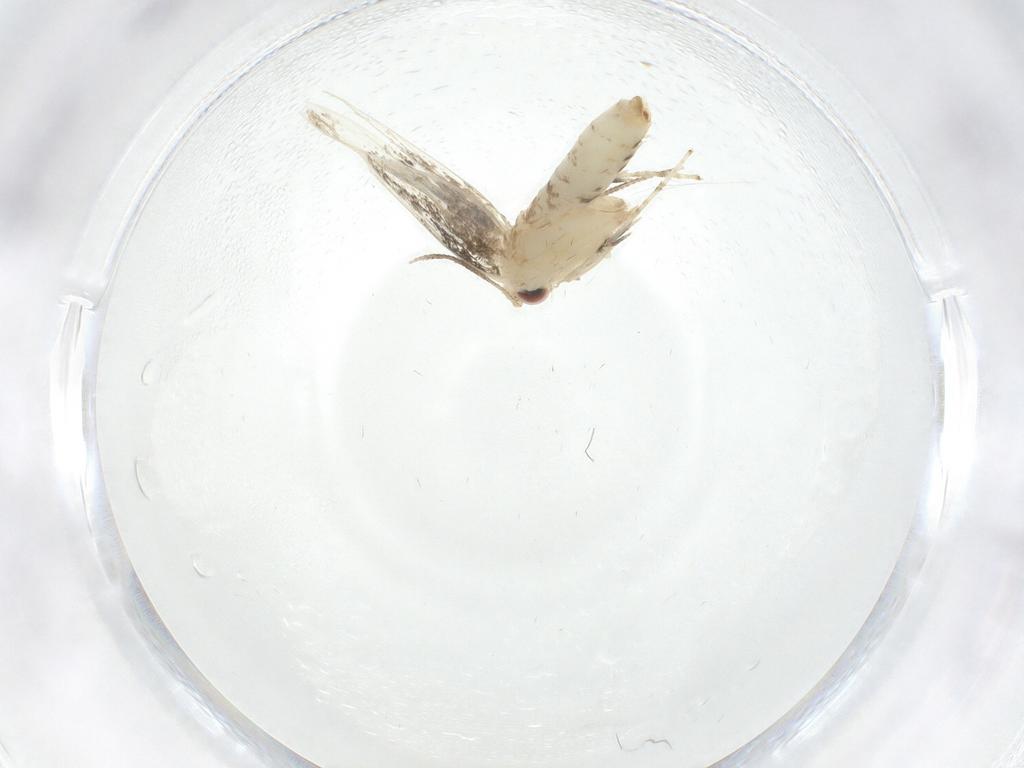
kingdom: Animalia
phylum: Arthropoda
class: Insecta
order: Lepidoptera
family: Gracillariidae
